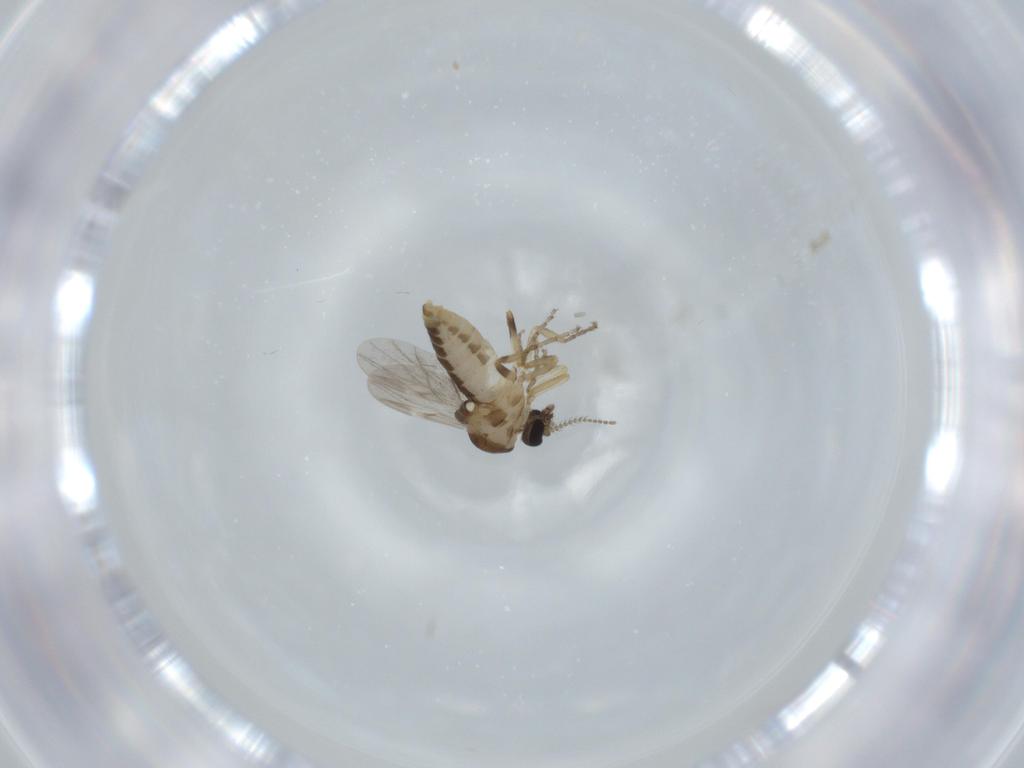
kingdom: Animalia
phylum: Arthropoda
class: Insecta
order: Diptera
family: Ceratopogonidae
